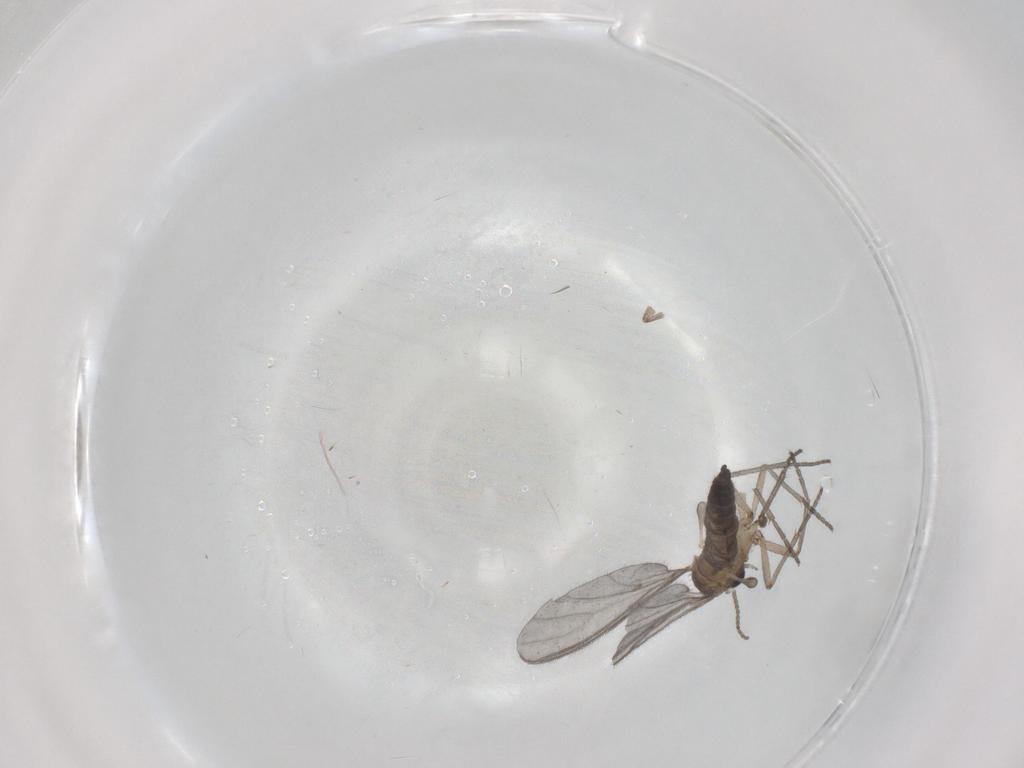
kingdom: Animalia
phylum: Arthropoda
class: Insecta
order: Diptera
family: Sciaridae
